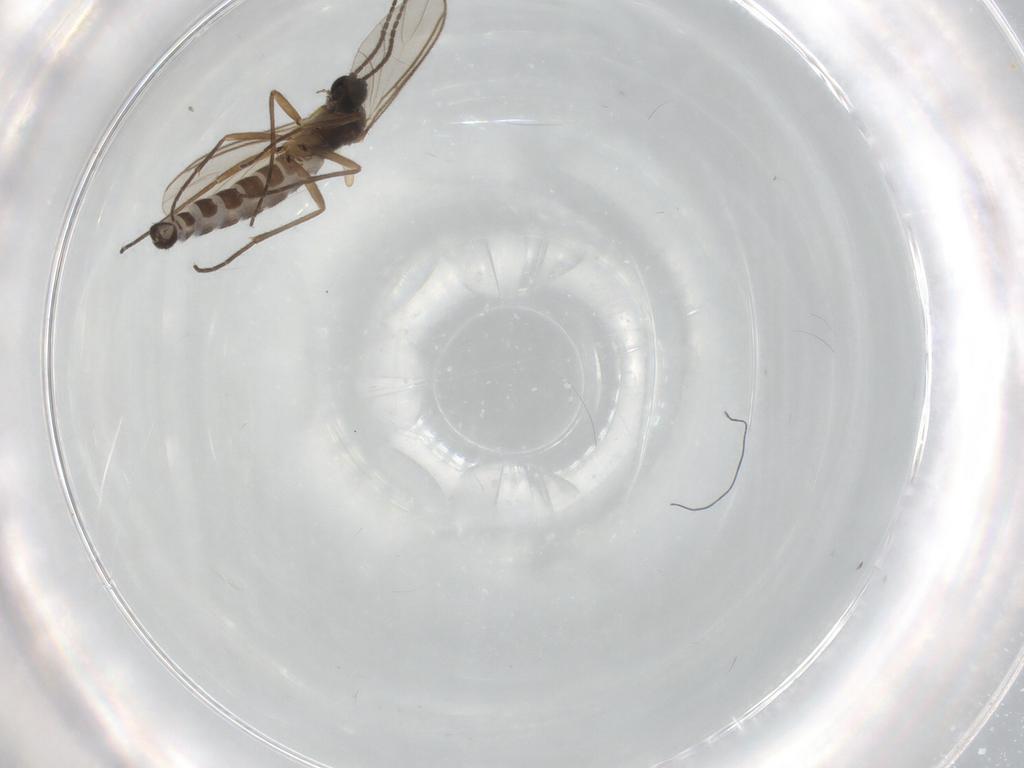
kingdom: Animalia
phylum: Arthropoda
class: Insecta
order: Diptera
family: Sciaridae
